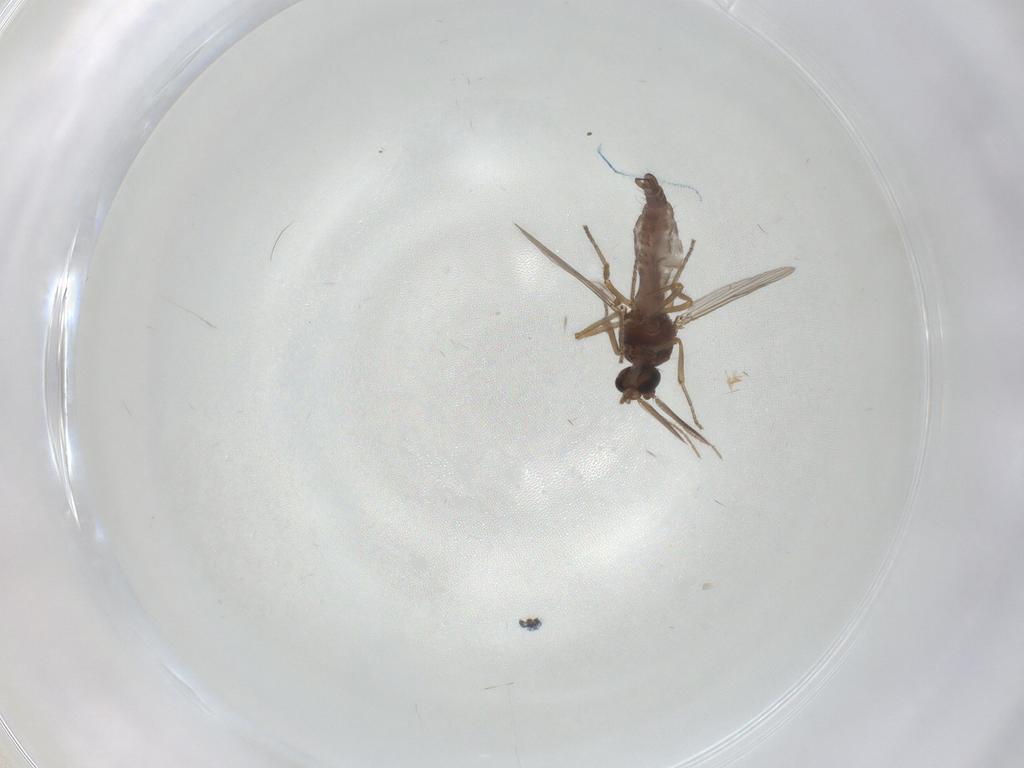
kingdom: Animalia
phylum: Arthropoda
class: Insecta
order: Diptera
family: Ceratopogonidae
